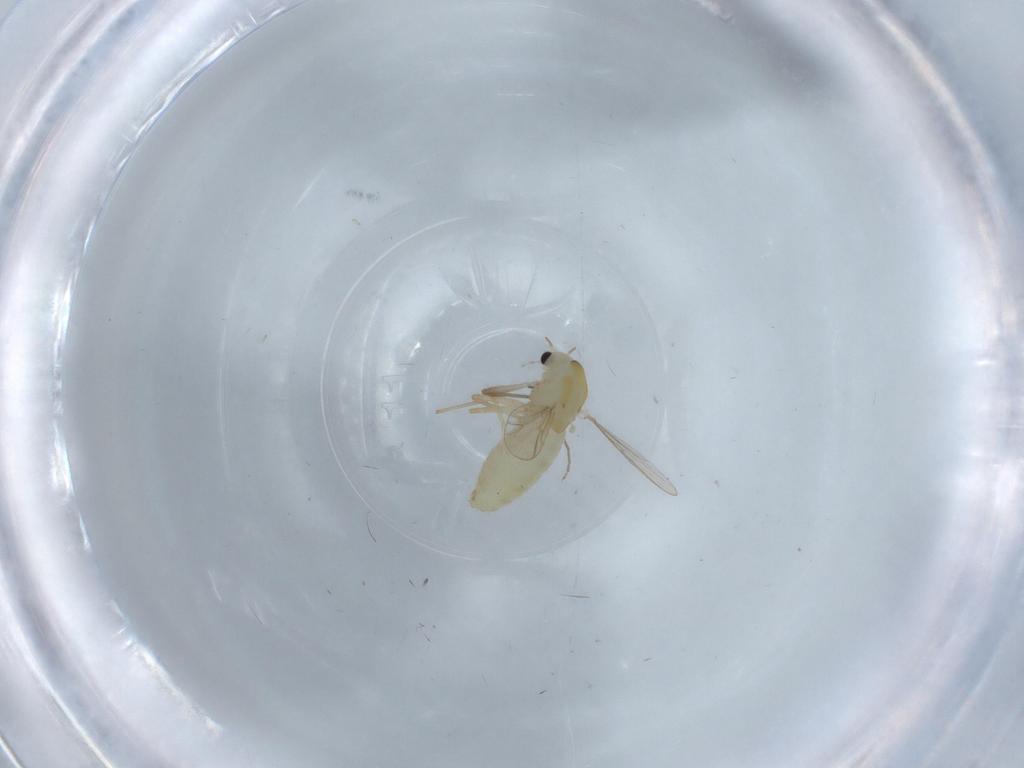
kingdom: Animalia
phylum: Arthropoda
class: Insecta
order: Diptera
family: Chironomidae
